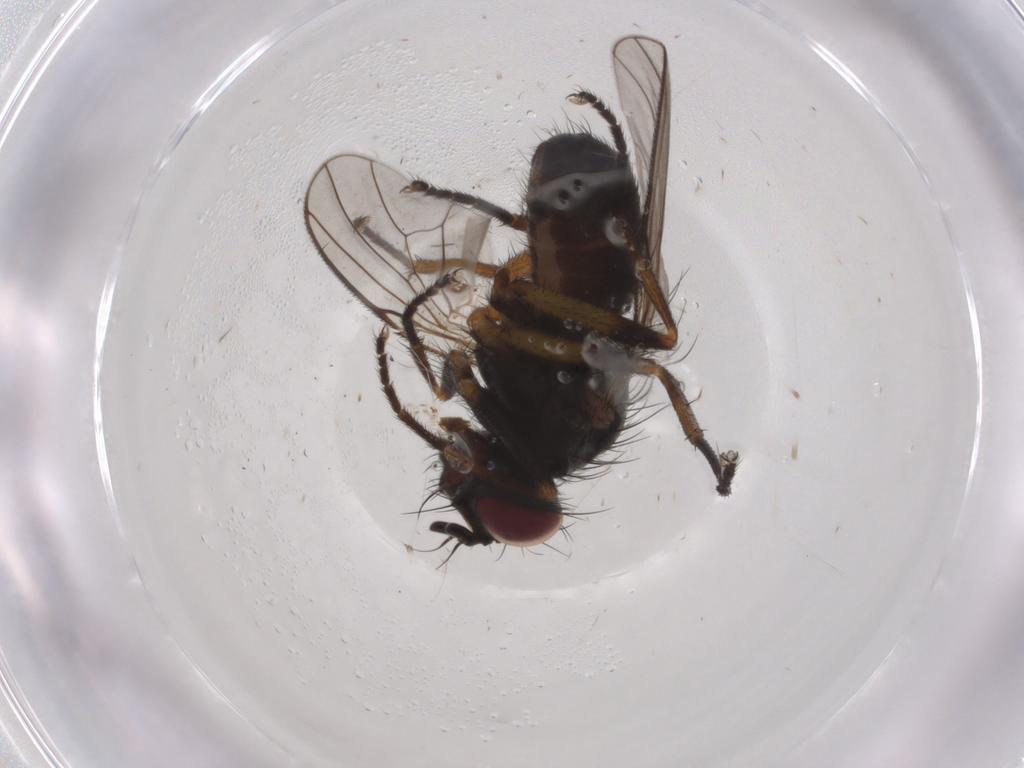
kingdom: Animalia
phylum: Arthropoda
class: Insecta
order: Diptera
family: Muscidae
